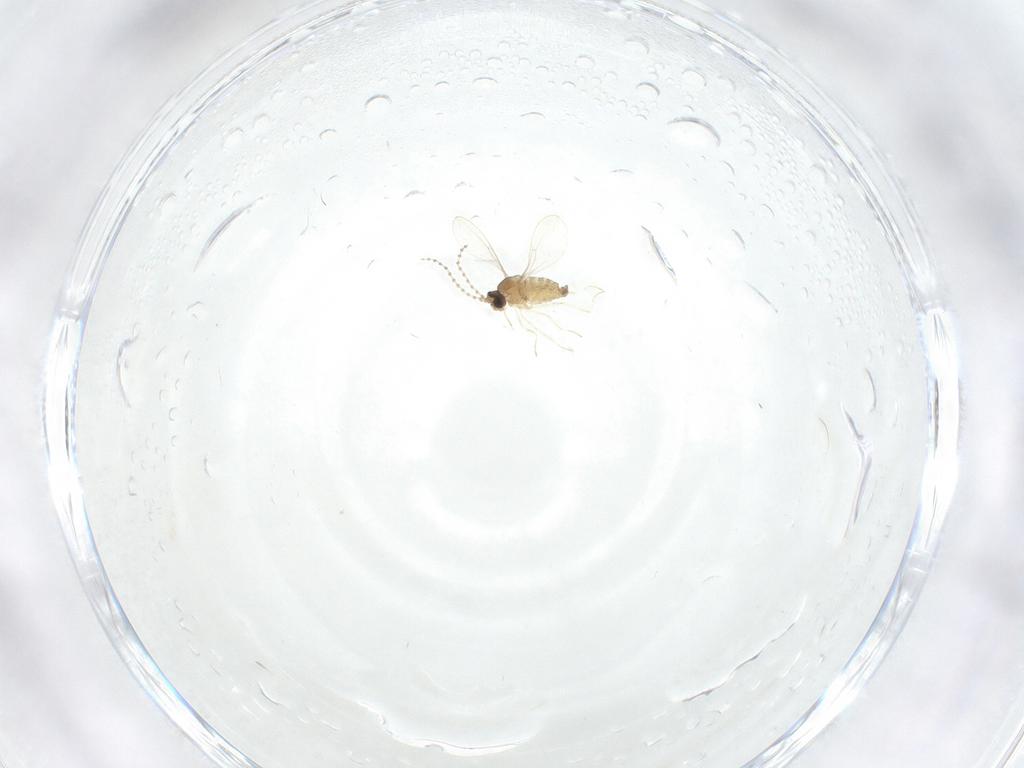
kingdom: Animalia
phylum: Arthropoda
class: Insecta
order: Diptera
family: Cecidomyiidae
